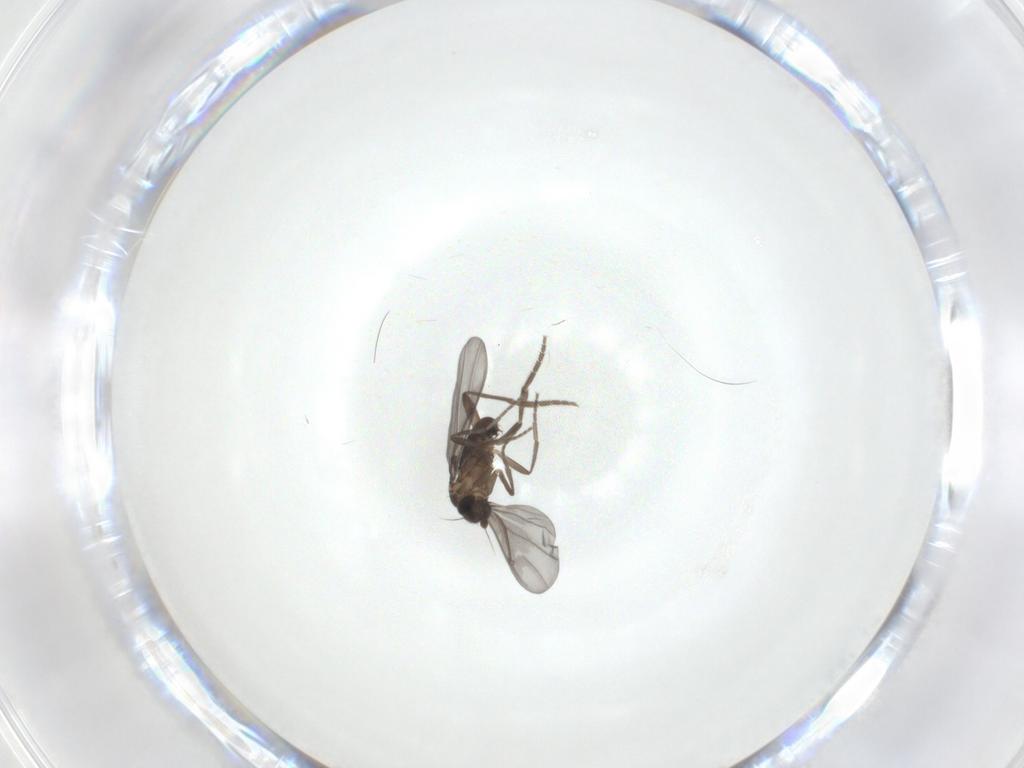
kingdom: Animalia
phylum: Arthropoda
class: Insecta
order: Diptera
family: Phoridae
